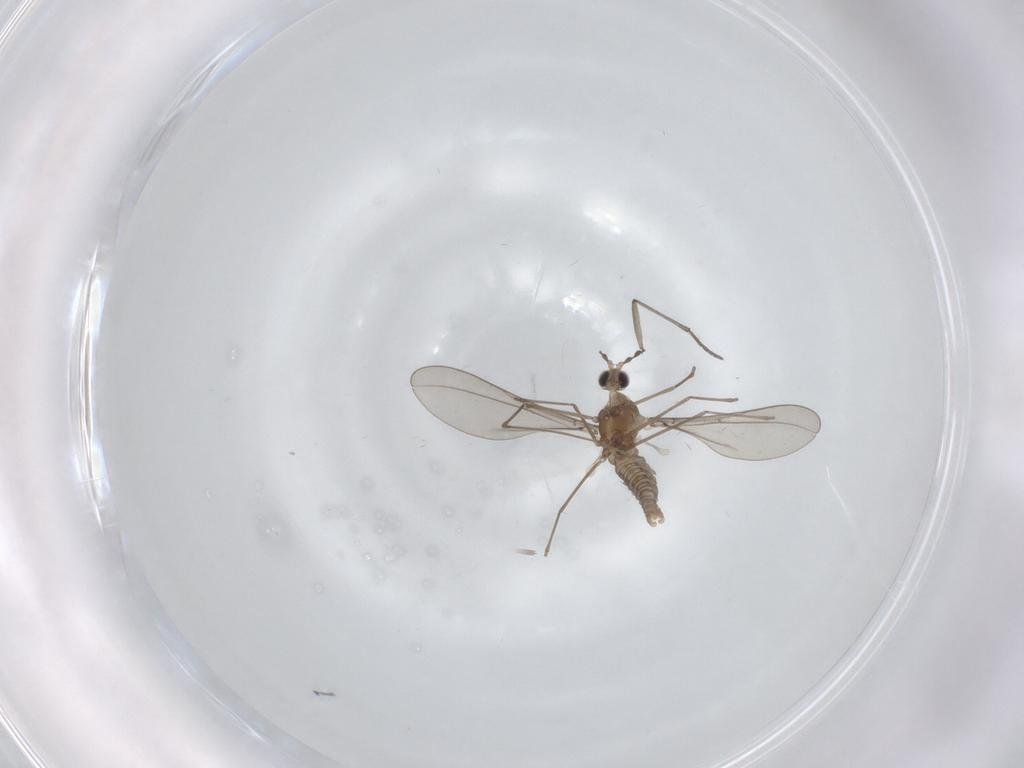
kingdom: Animalia
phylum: Arthropoda
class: Insecta
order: Diptera
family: Cecidomyiidae
